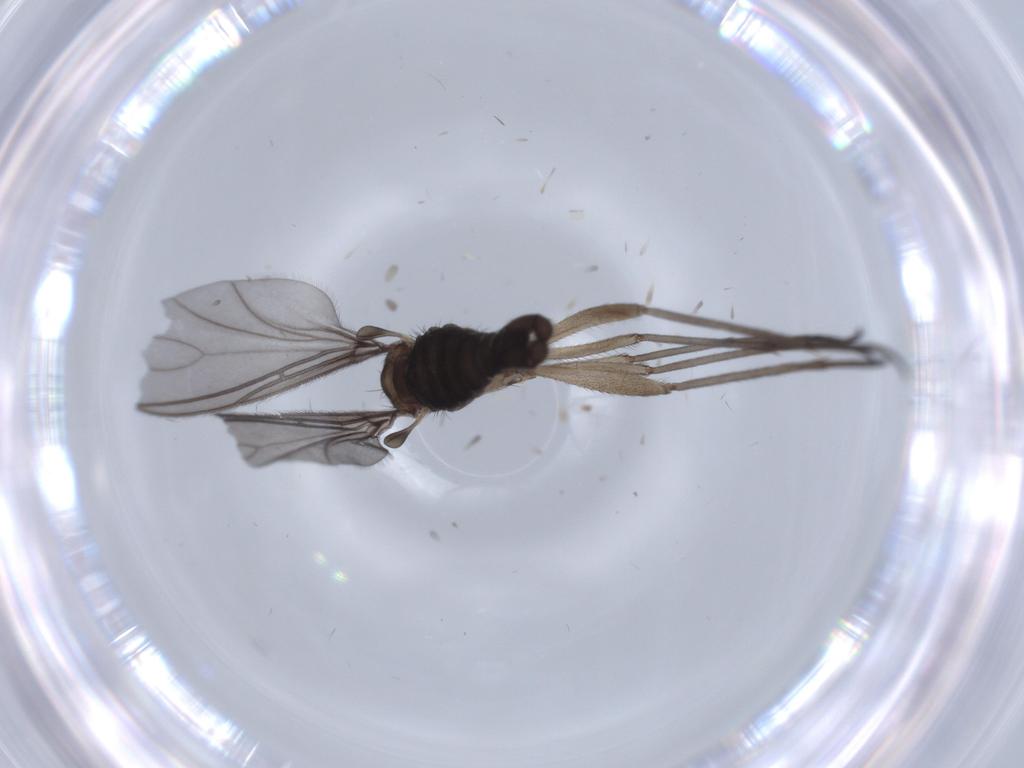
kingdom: Animalia
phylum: Arthropoda
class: Insecta
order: Diptera
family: Sciaridae
